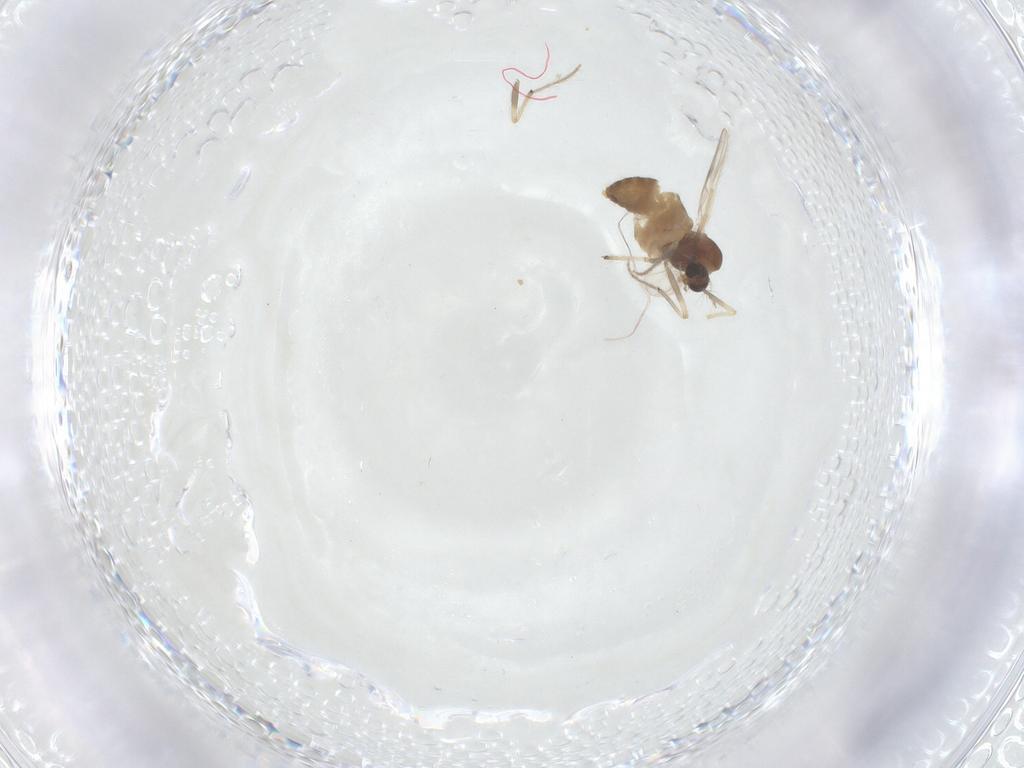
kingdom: Animalia
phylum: Arthropoda
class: Insecta
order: Diptera
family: Chironomidae
